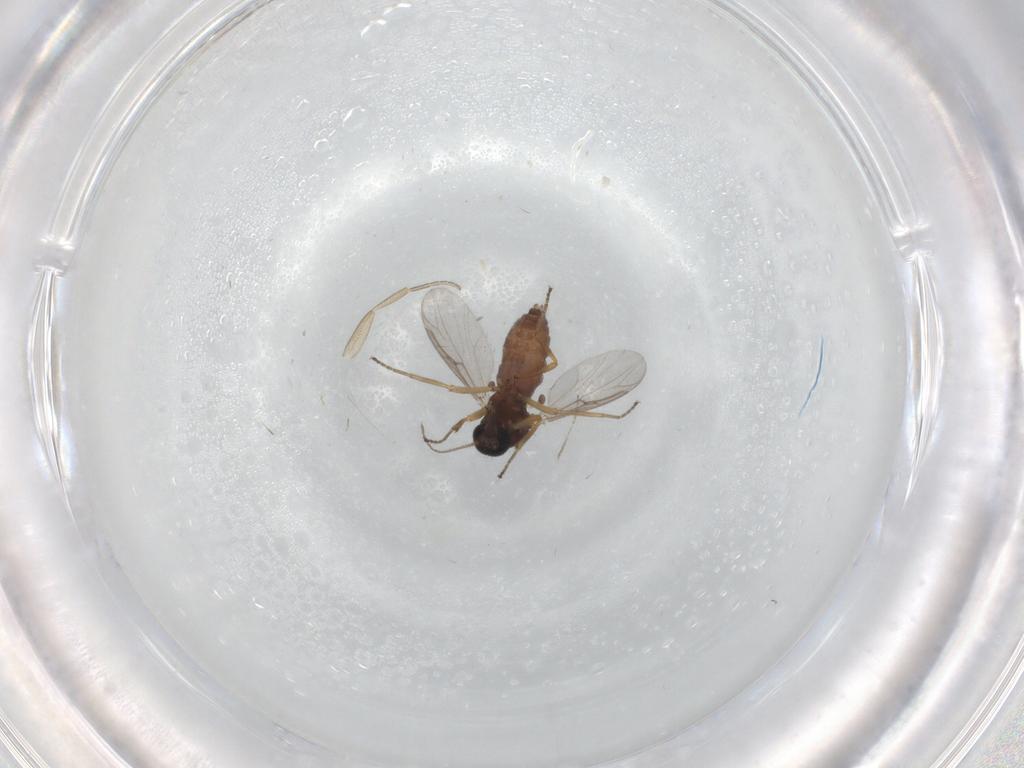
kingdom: Animalia
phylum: Arthropoda
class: Insecta
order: Diptera
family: Ceratopogonidae
